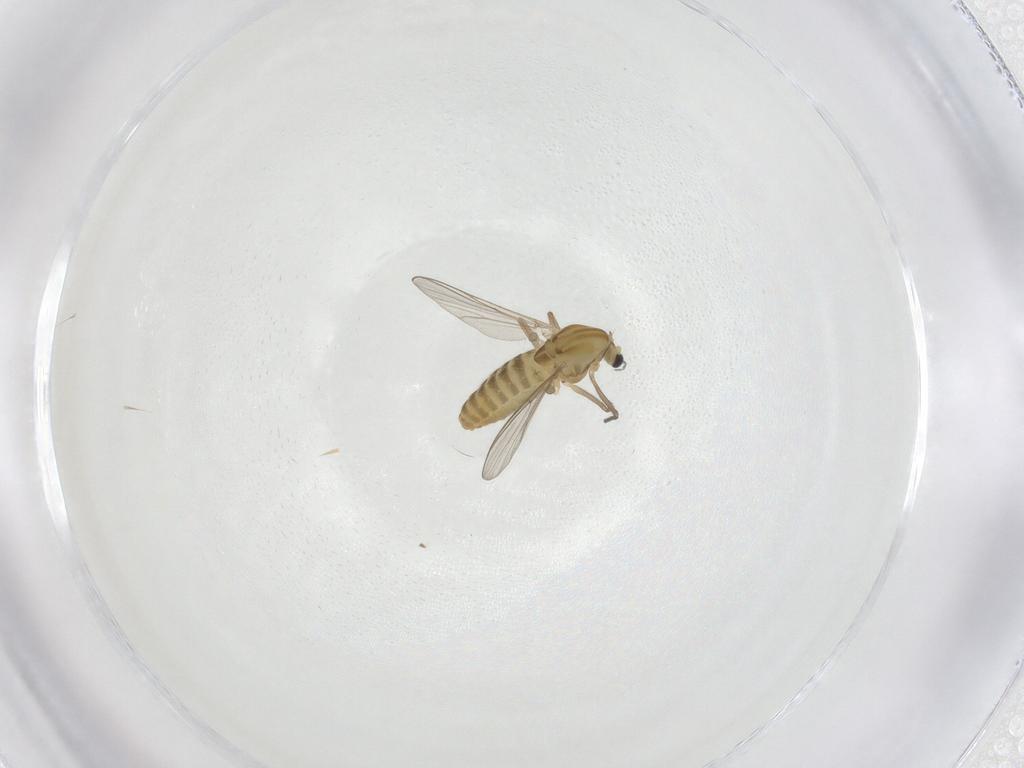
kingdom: Animalia
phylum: Arthropoda
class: Insecta
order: Diptera
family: Chironomidae
